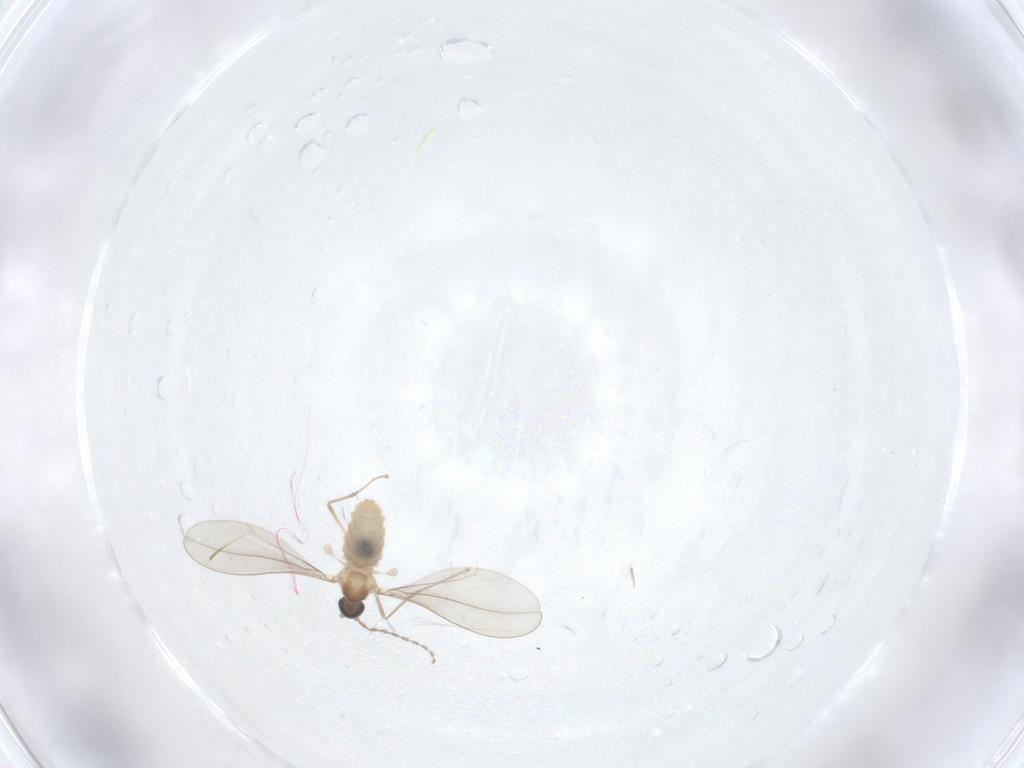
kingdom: Animalia
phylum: Arthropoda
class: Insecta
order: Diptera
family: Cecidomyiidae
